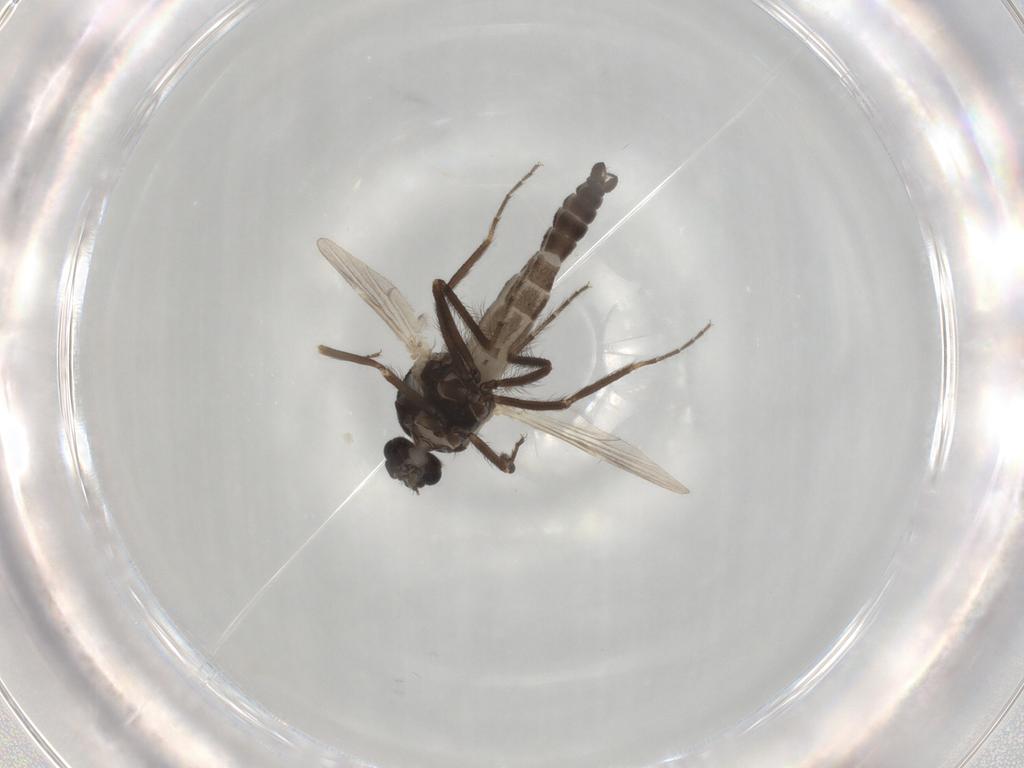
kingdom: Animalia
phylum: Arthropoda
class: Insecta
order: Diptera
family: Ceratopogonidae
